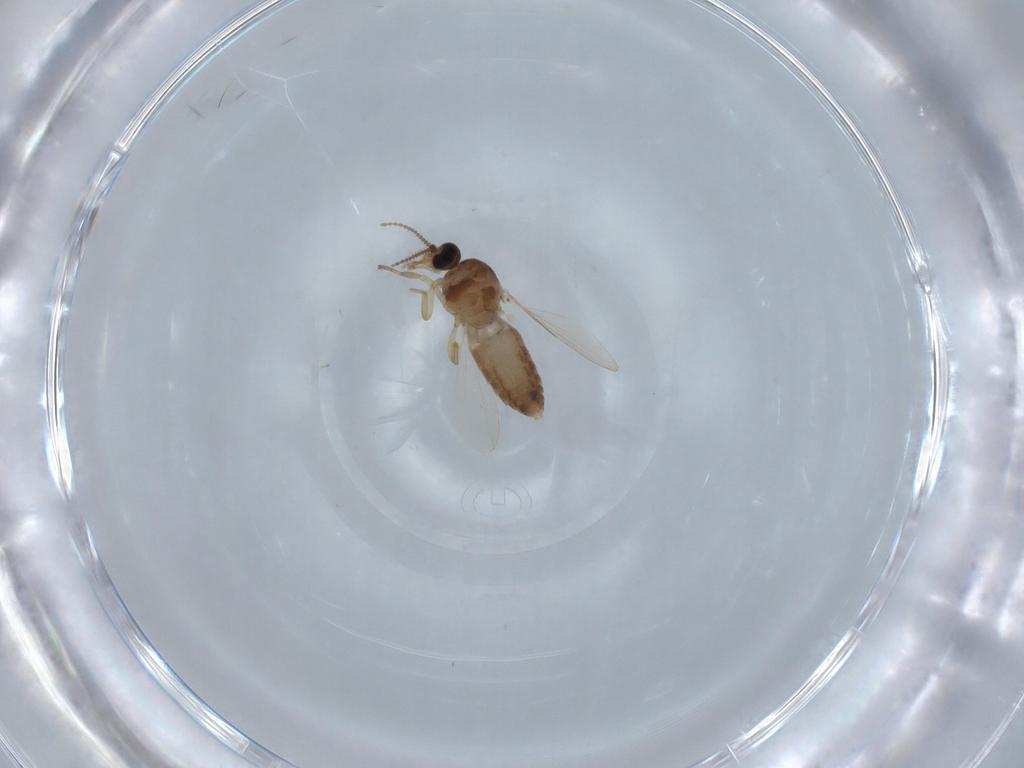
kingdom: Animalia
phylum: Arthropoda
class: Insecta
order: Diptera
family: Ceratopogonidae
